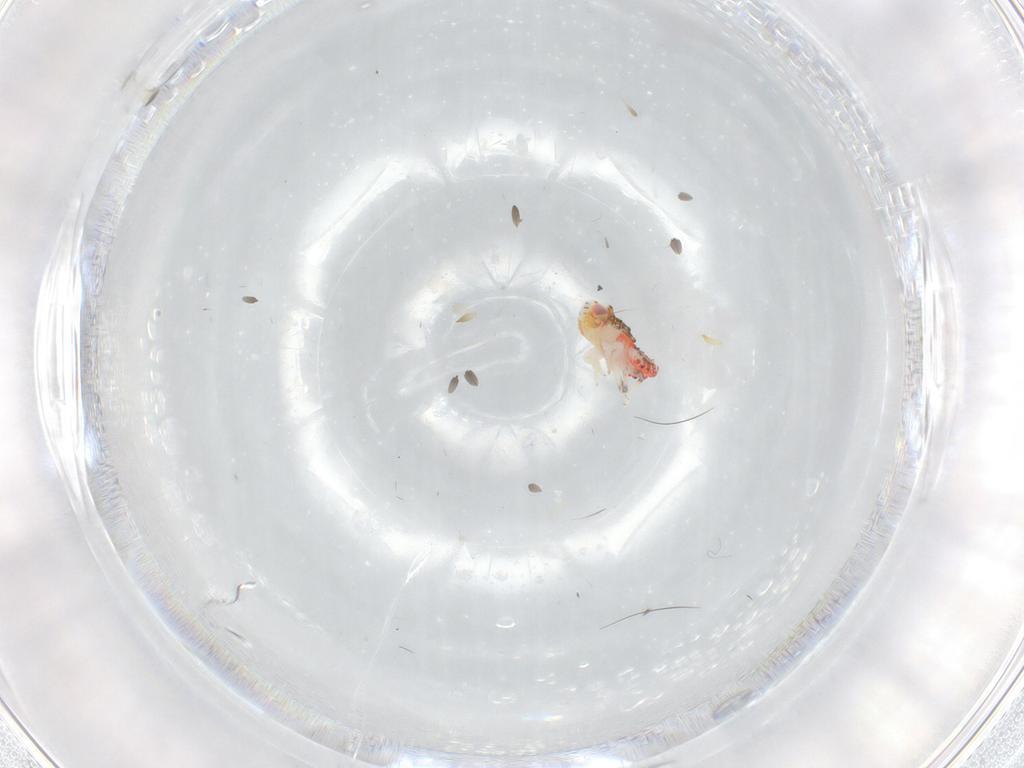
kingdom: Animalia
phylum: Arthropoda
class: Insecta
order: Hemiptera
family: Nogodinidae
